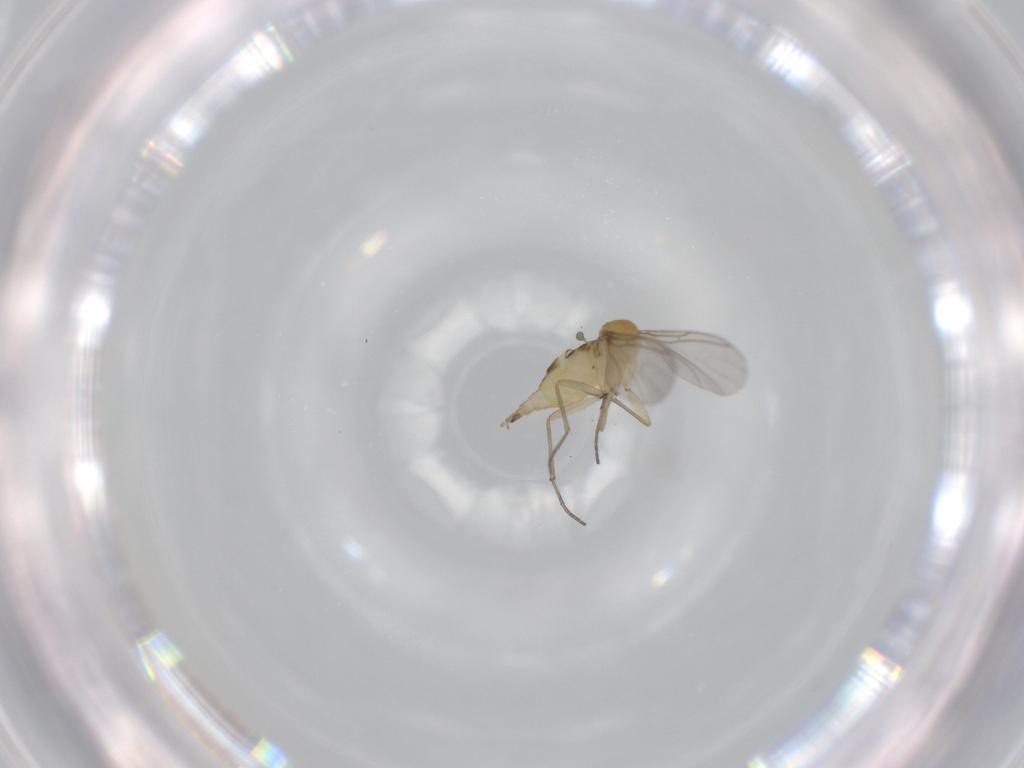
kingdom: Animalia
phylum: Arthropoda
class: Insecta
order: Diptera
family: Sciaridae
